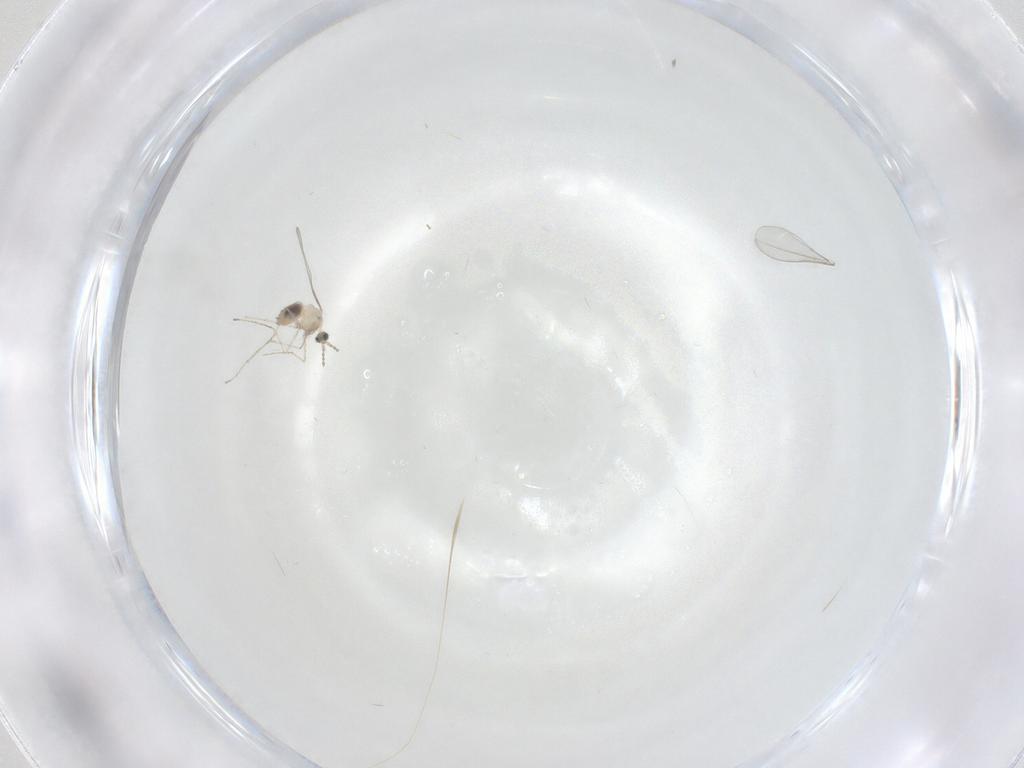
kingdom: Animalia
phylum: Arthropoda
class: Insecta
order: Diptera
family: Cecidomyiidae
